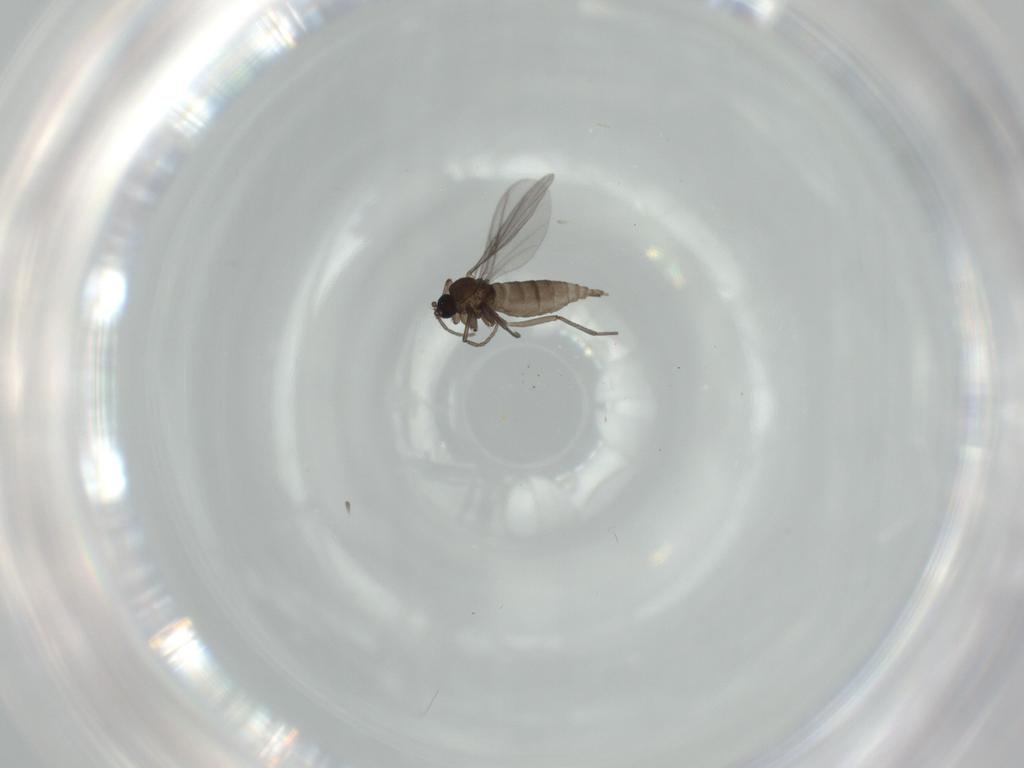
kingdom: Animalia
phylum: Arthropoda
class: Insecta
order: Diptera
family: Sciaridae
